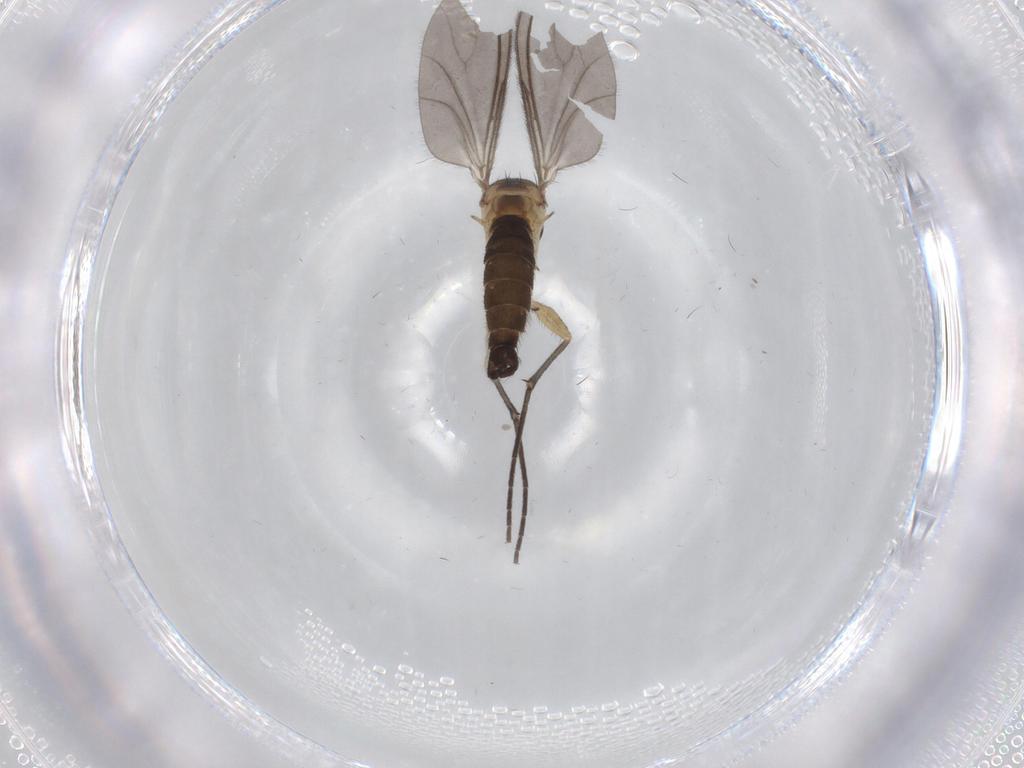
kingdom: Animalia
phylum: Arthropoda
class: Insecta
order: Diptera
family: Sciaridae
